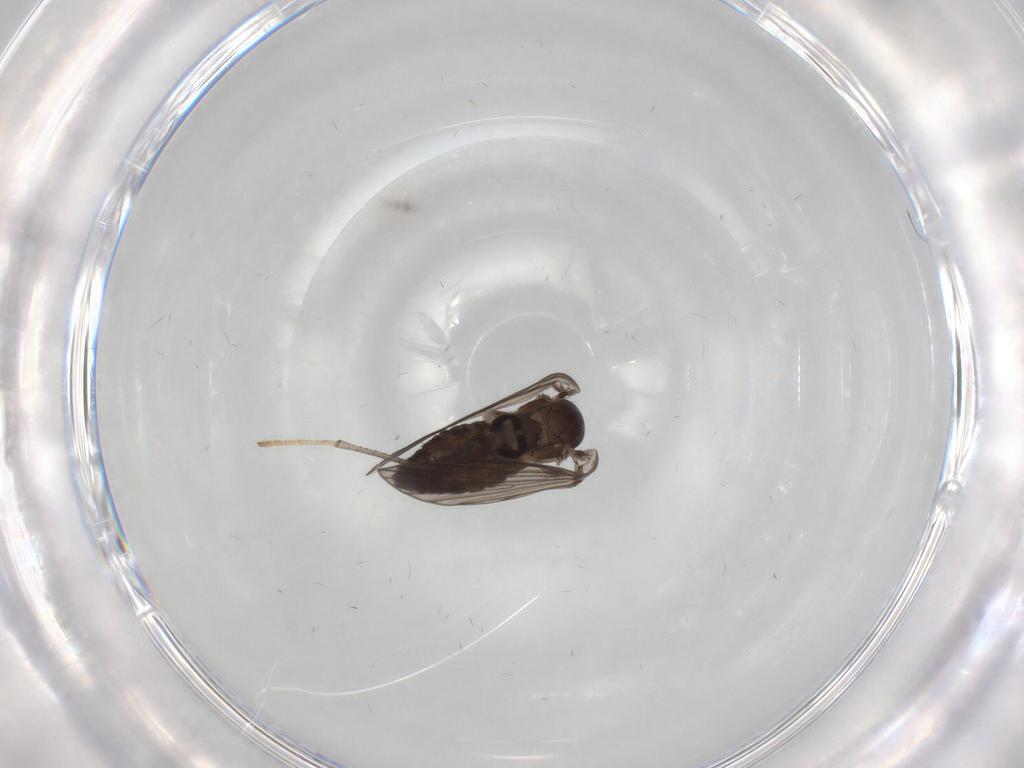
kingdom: Animalia
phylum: Arthropoda
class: Insecta
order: Diptera
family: Psychodidae
